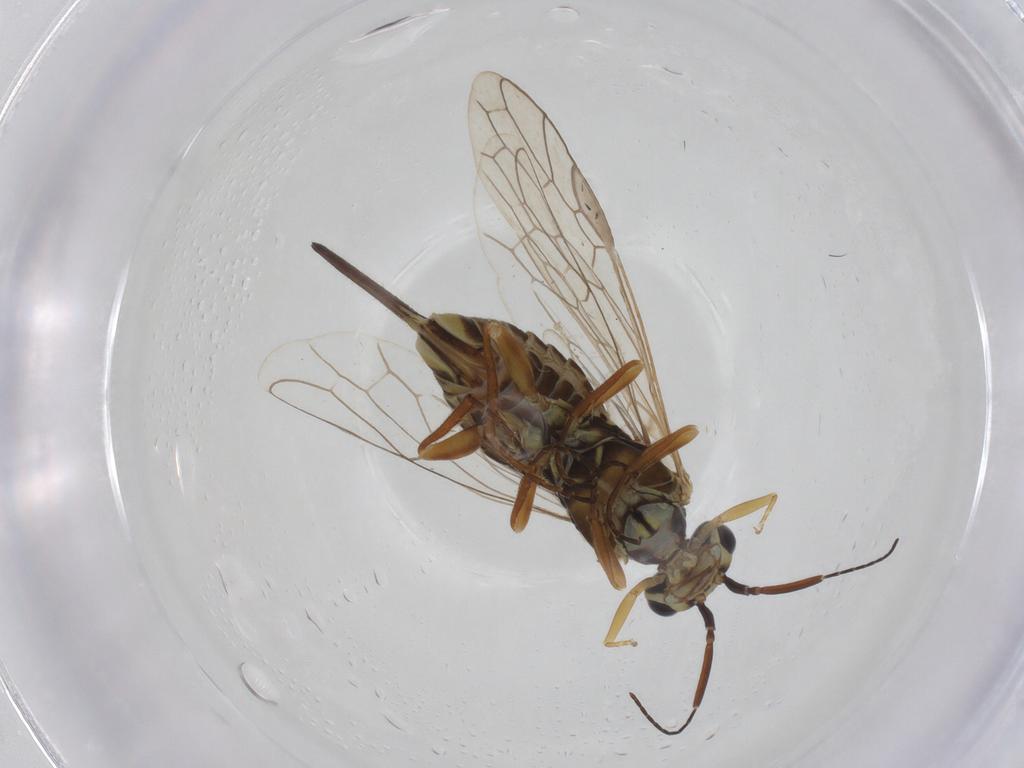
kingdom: Animalia
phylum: Arthropoda
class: Insecta
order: Hymenoptera
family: Xyelidae
